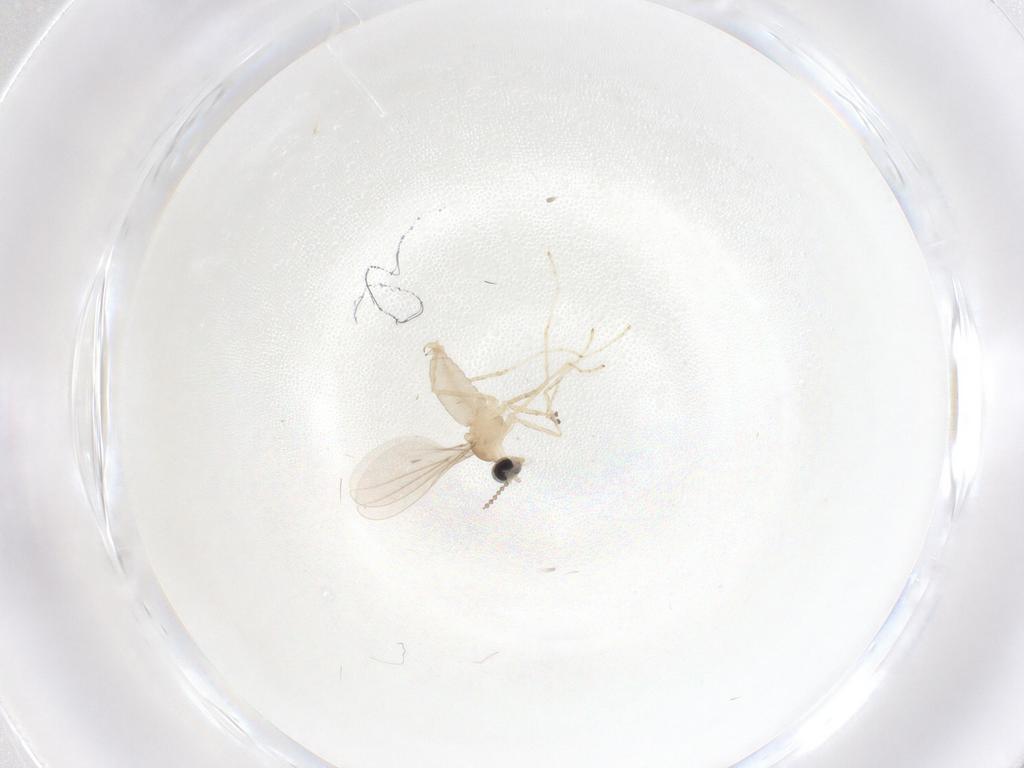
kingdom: Animalia
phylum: Arthropoda
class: Insecta
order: Diptera
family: Cecidomyiidae
